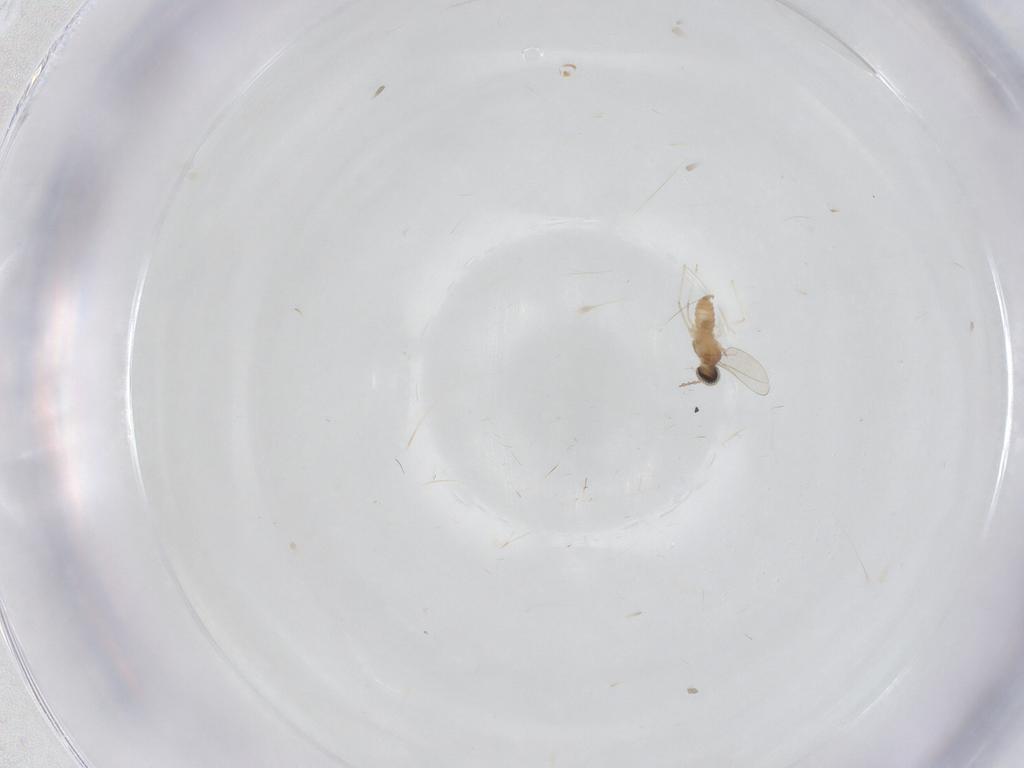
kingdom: Animalia
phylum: Arthropoda
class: Insecta
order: Diptera
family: Cecidomyiidae
